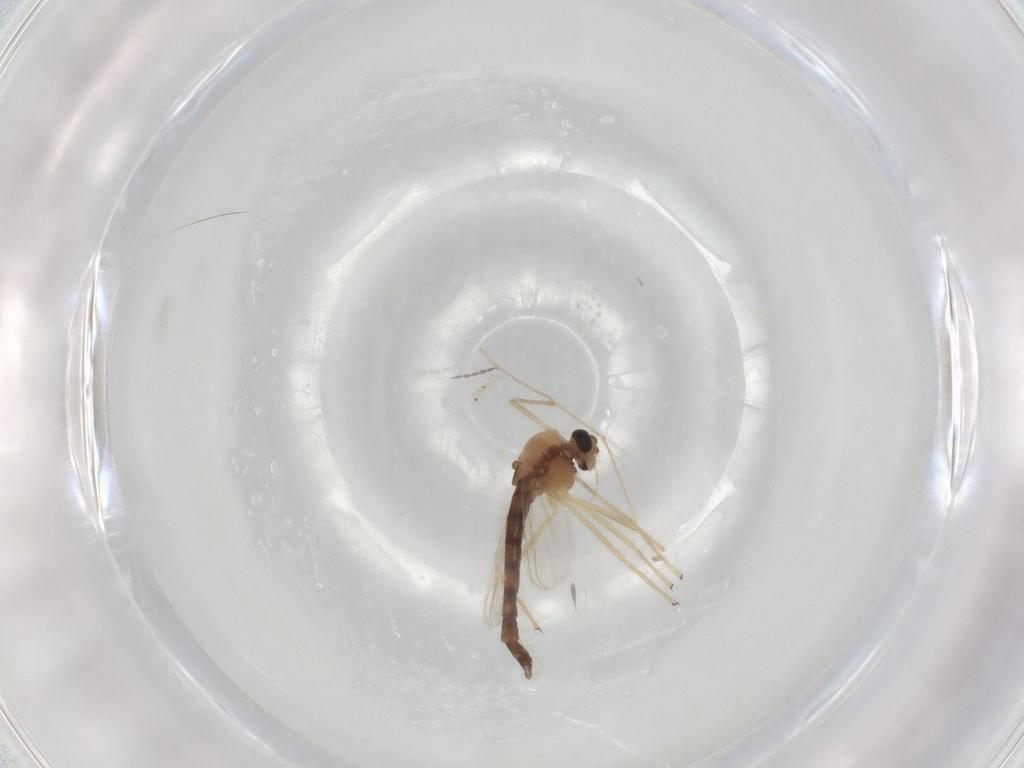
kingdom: Animalia
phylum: Arthropoda
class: Insecta
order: Diptera
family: Chironomidae
